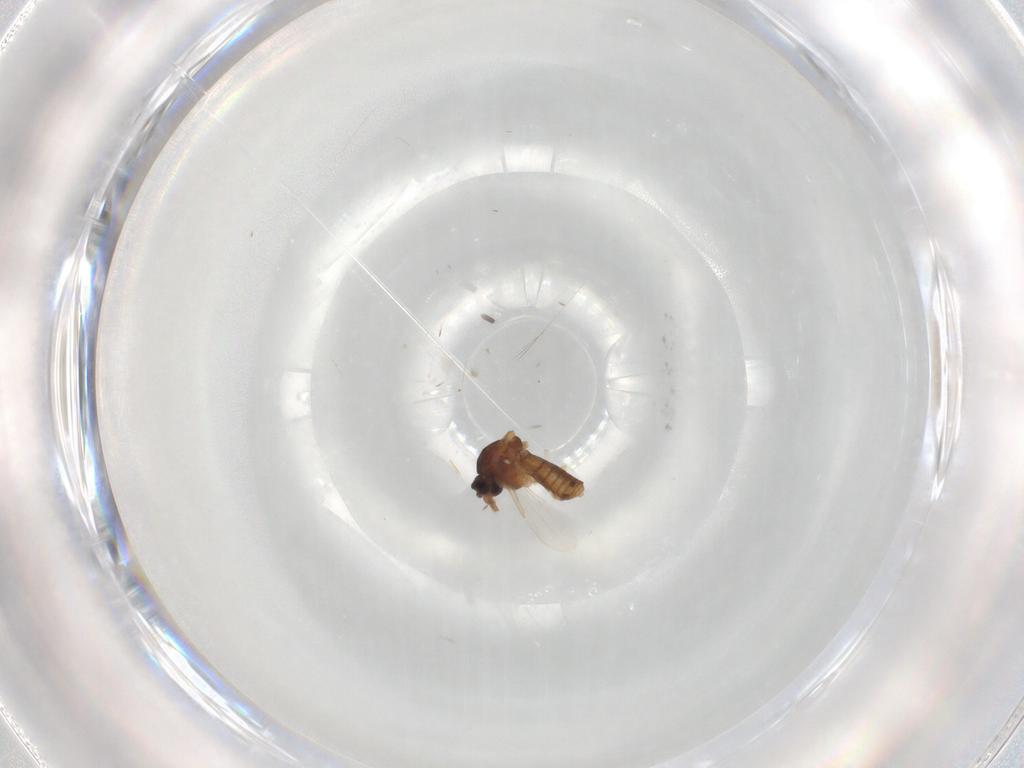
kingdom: Animalia
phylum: Arthropoda
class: Insecta
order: Diptera
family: Ceratopogonidae
